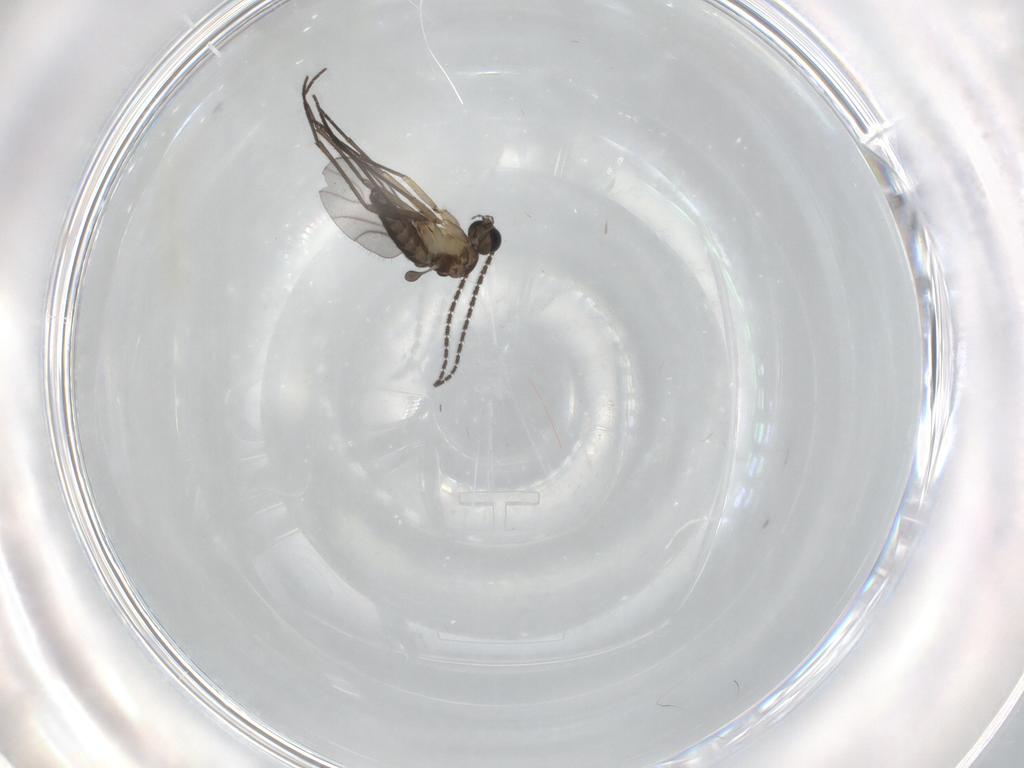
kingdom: Animalia
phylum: Arthropoda
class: Insecta
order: Diptera
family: Sciaridae
